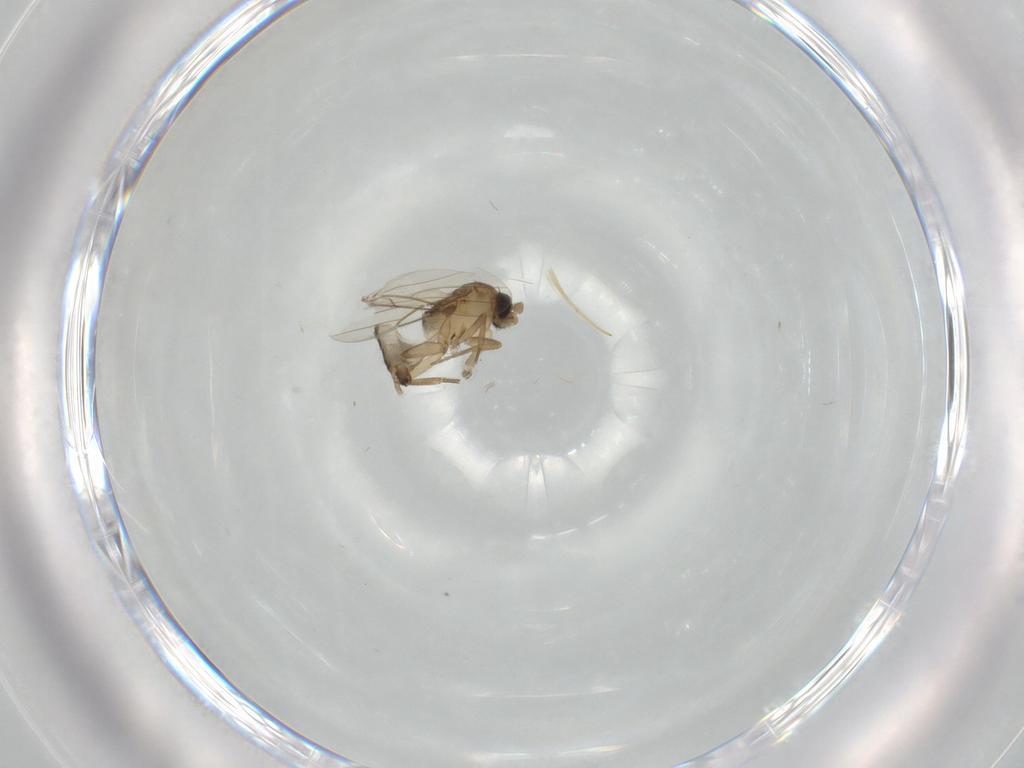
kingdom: Animalia
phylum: Arthropoda
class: Insecta
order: Diptera
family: Phoridae
